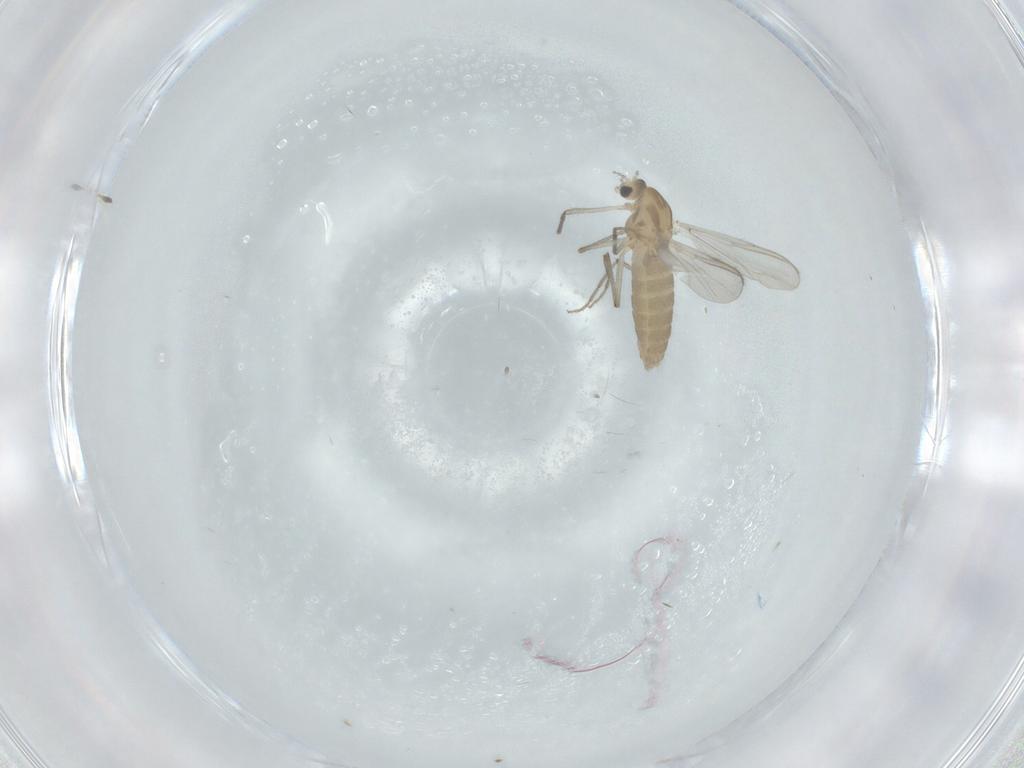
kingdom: Animalia
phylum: Arthropoda
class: Insecta
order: Diptera
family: Chironomidae
